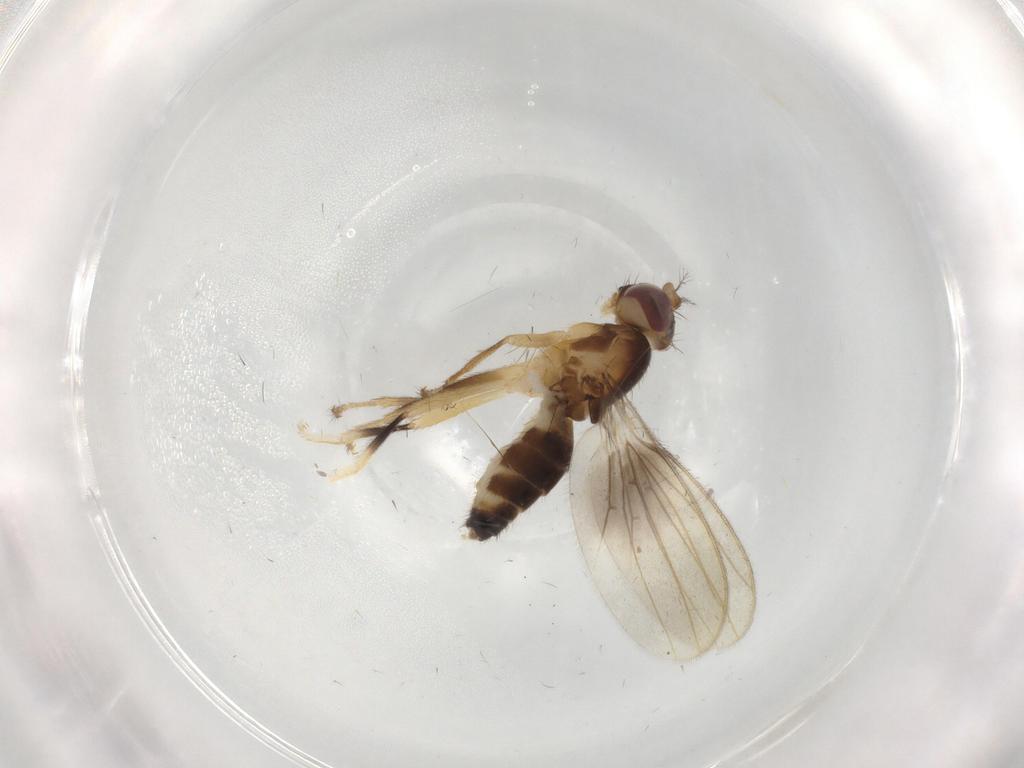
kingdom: Animalia
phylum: Arthropoda
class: Insecta
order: Diptera
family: Periscelididae
